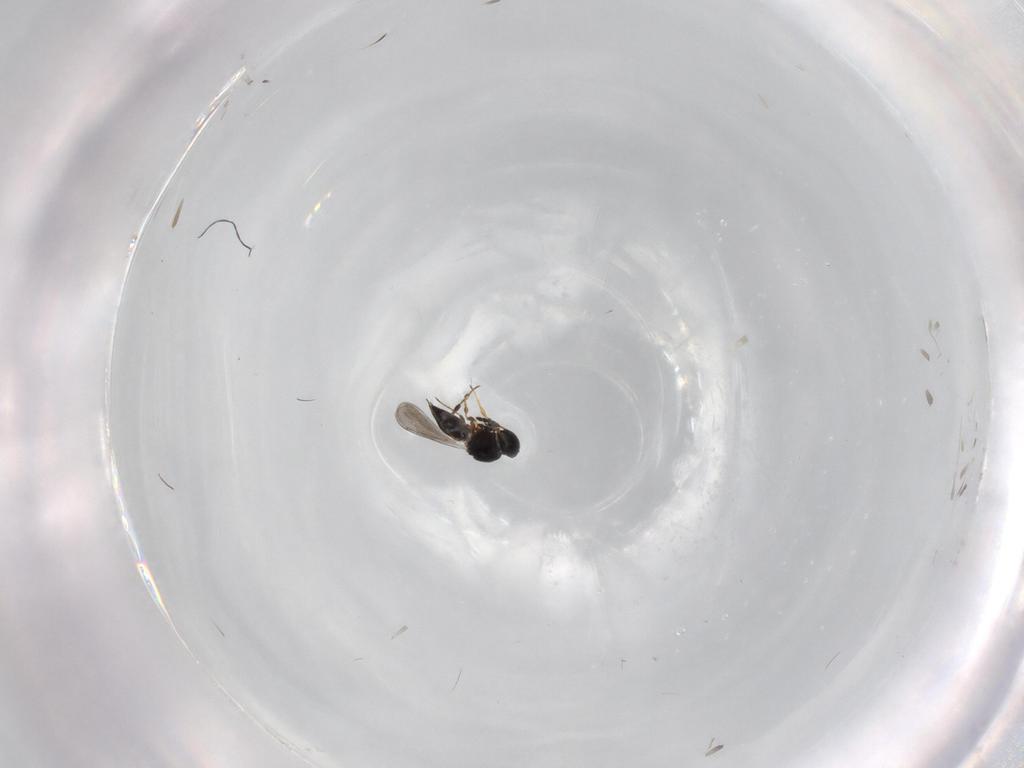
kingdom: Animalia
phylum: Arthropoda
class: Insecta
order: Hymenoptera
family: Platygastridae
